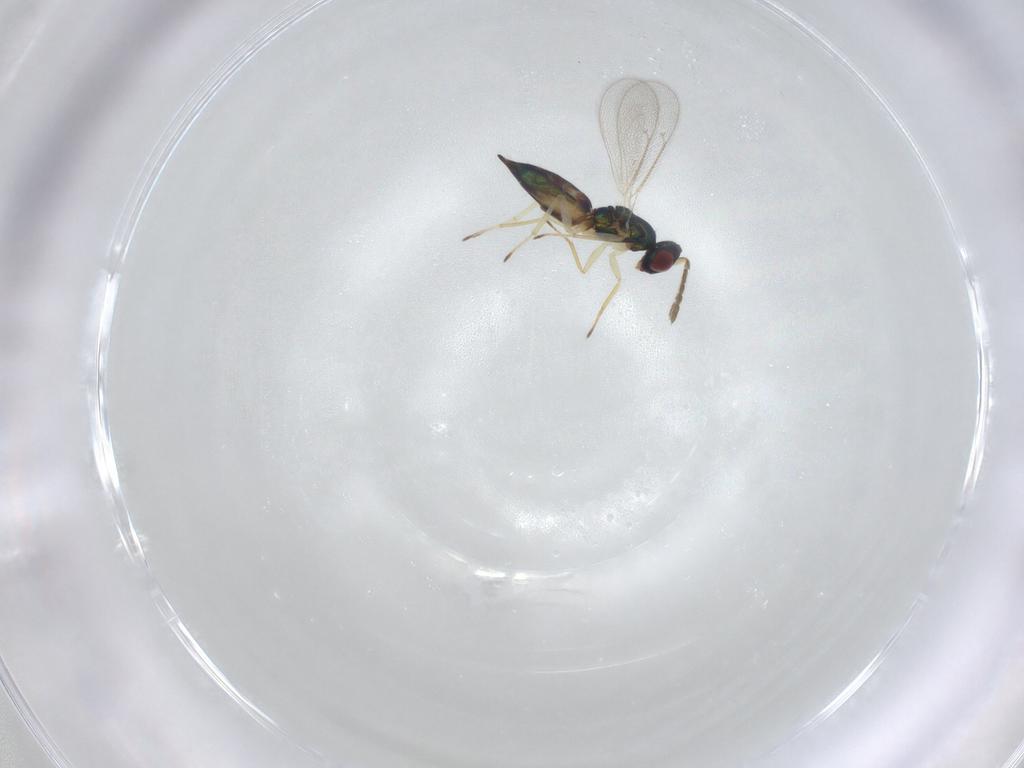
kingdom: Animalia
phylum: Arthropoda
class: Insecta
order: Hymenoptera
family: Eulophidae
